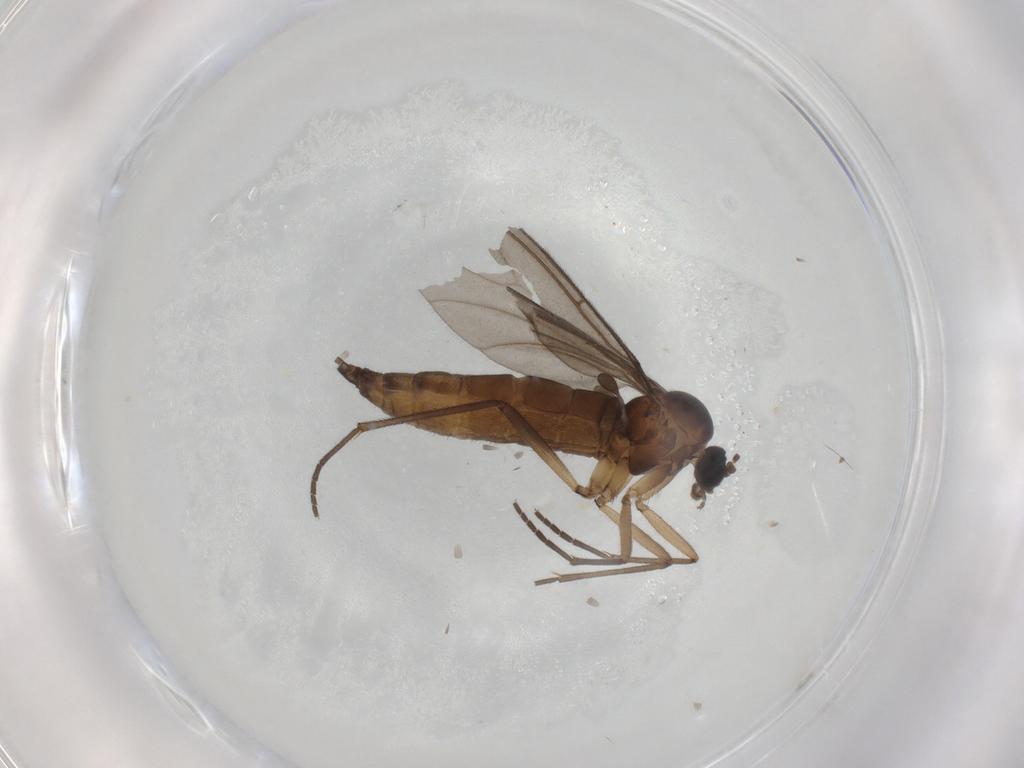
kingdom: Animalia
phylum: Arthropoda
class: Insecta
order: Diptera
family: Sciaridae
